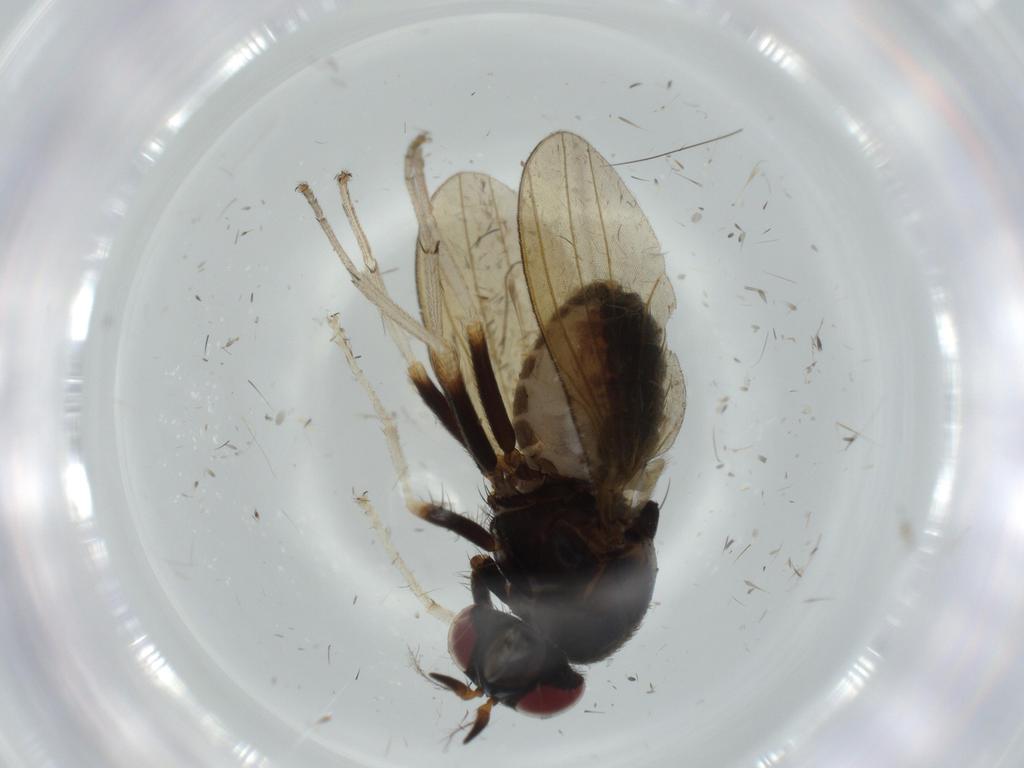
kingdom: Animalia
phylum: Arthropoda
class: Insecta
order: Diptera
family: Lauxaniidae
